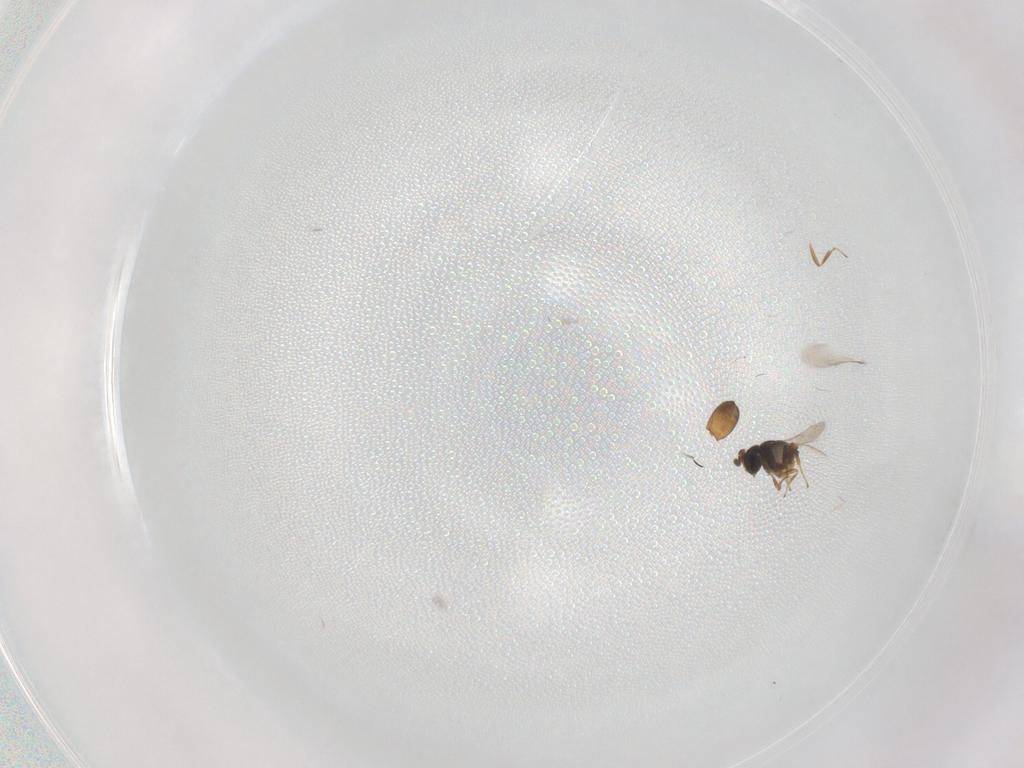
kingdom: Animalia
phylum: Arthropoda
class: Insecta
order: Hymenoptera
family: Scelionidae
